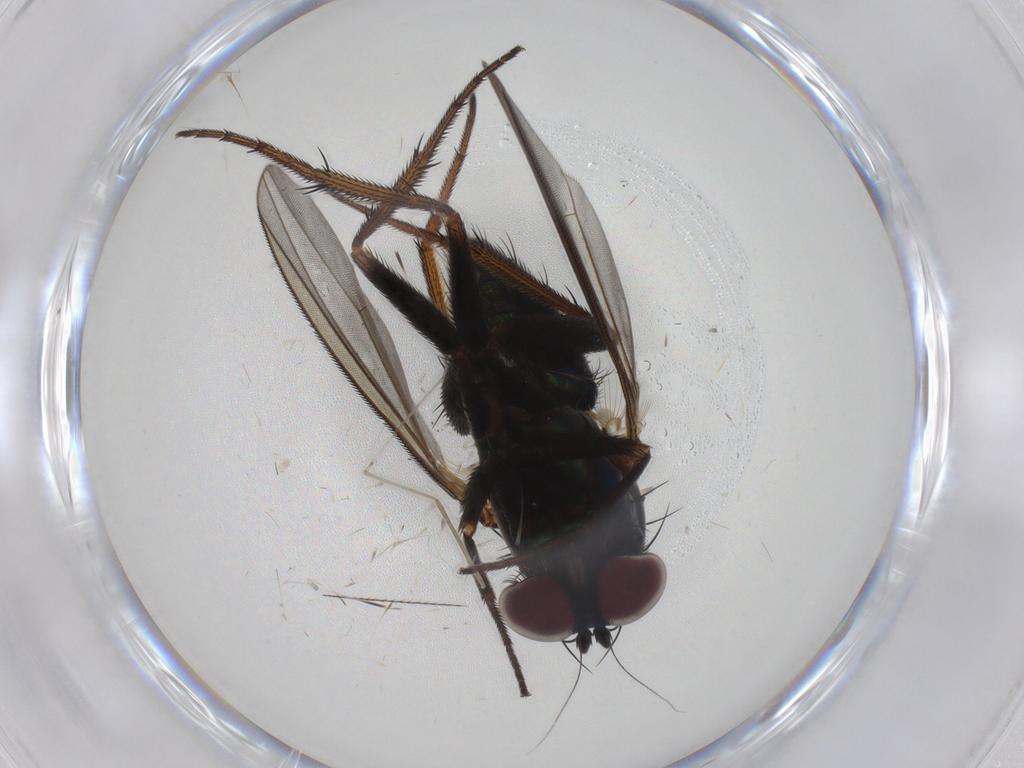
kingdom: Animalia
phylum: Arthropoda
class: Insecta
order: Diptera
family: Dolichopodidae
